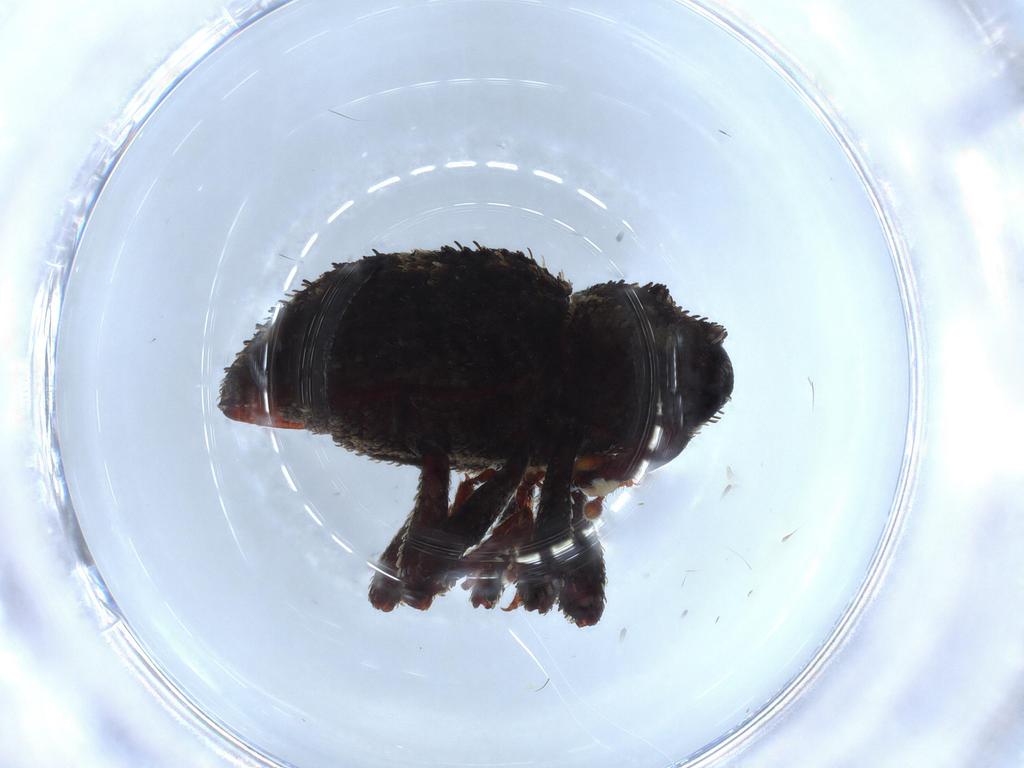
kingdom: Animalia
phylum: Arthropoda
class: Insecta
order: Coleoptera
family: Curculionidae
